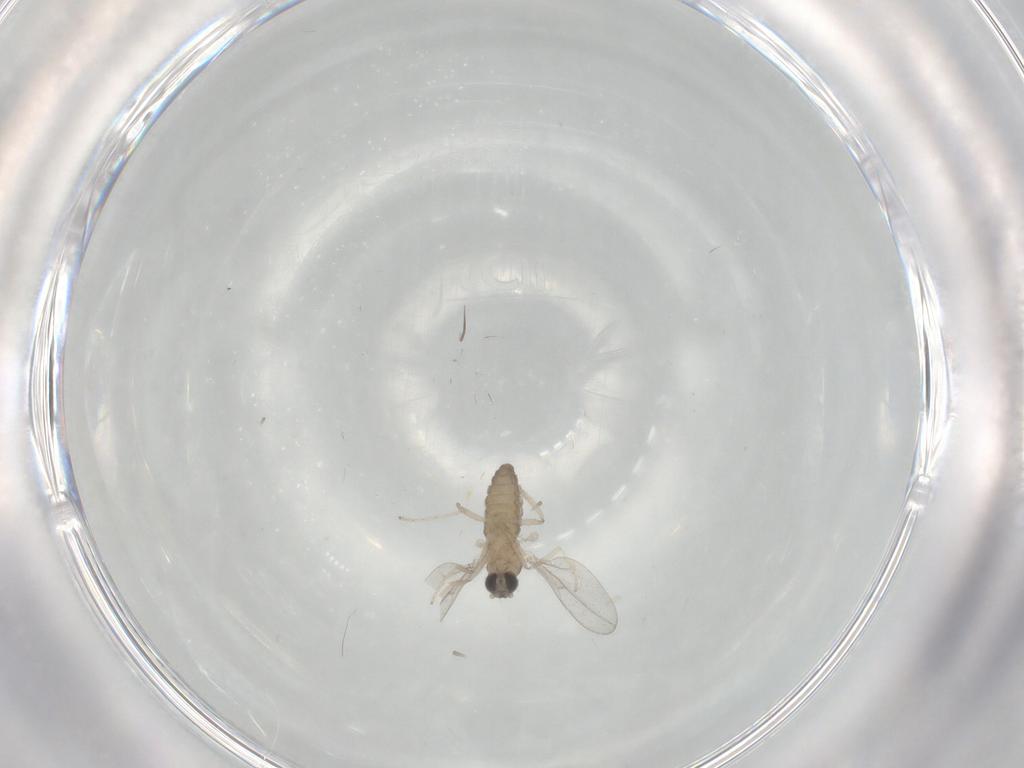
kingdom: Animalia
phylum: Arthropoda
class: Insecta
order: Diptera
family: Cecidomyiidae
